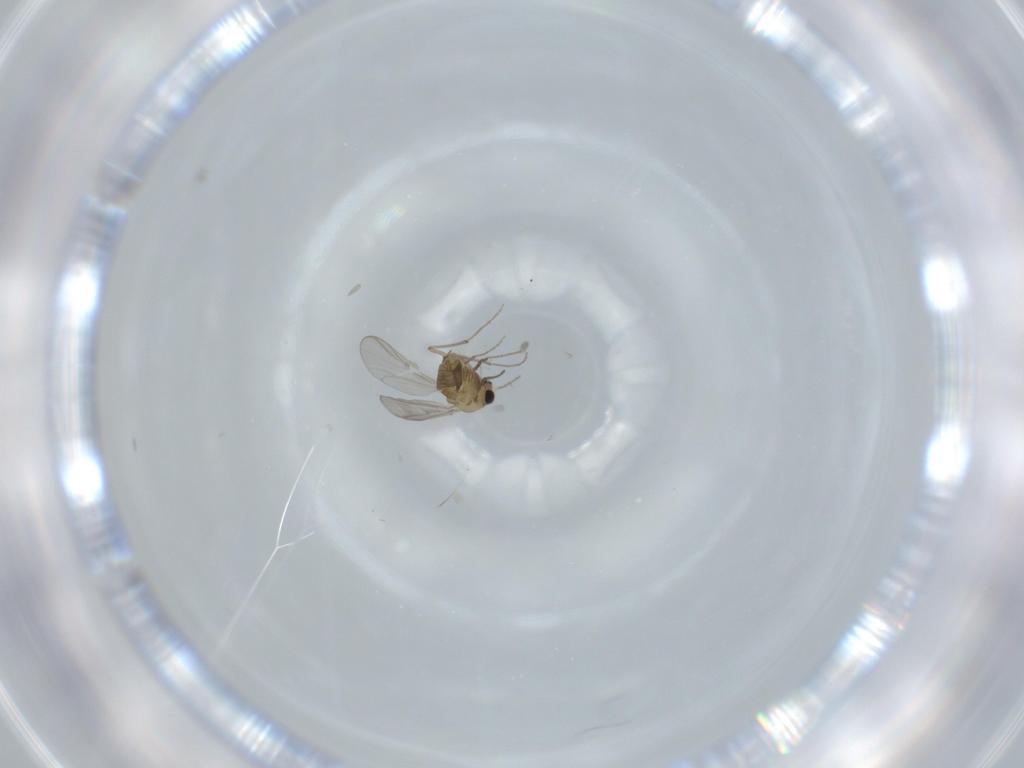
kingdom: Animalia
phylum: Arthropoda
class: Insecta
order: Diptera
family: Chironomidae
